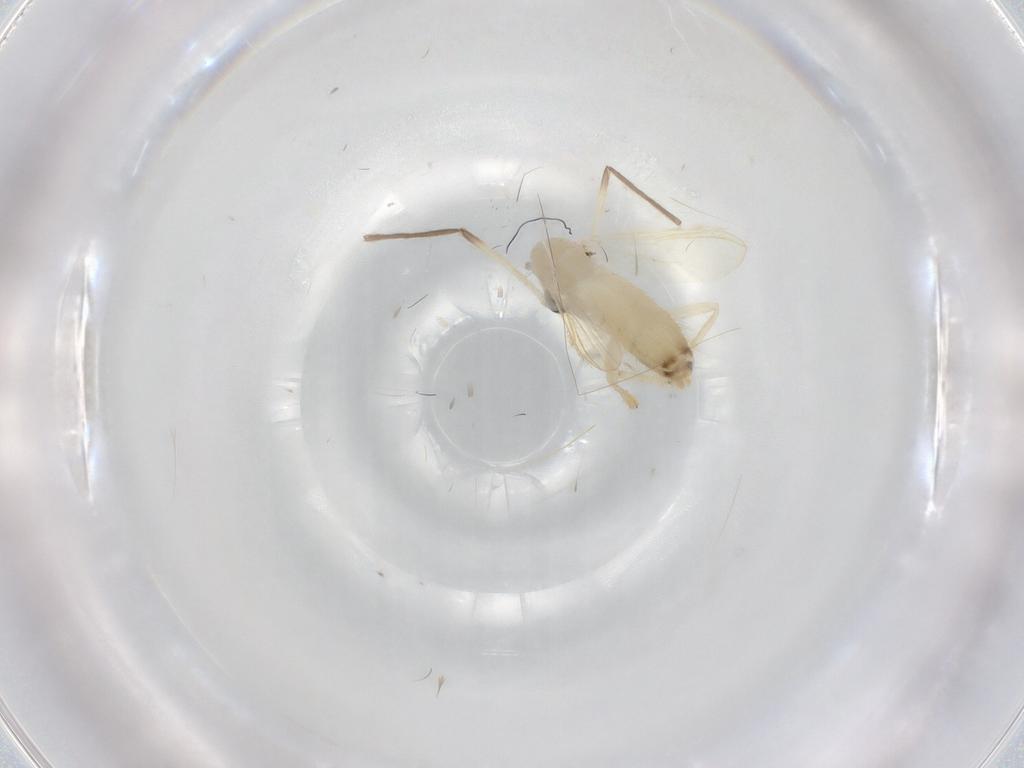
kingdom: Animalia
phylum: Arthropoda
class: Insecta
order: Diptera
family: Chironomidae
